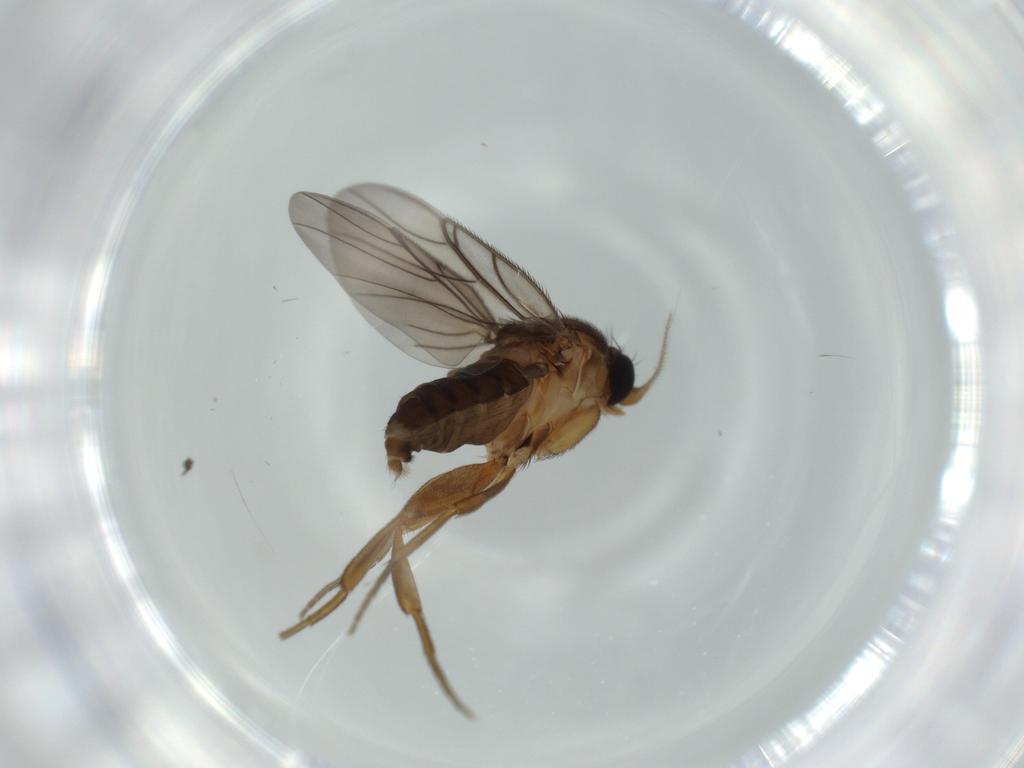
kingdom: Animalia
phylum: Arthropoda
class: Insecta
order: Diptera
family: Phoridae
